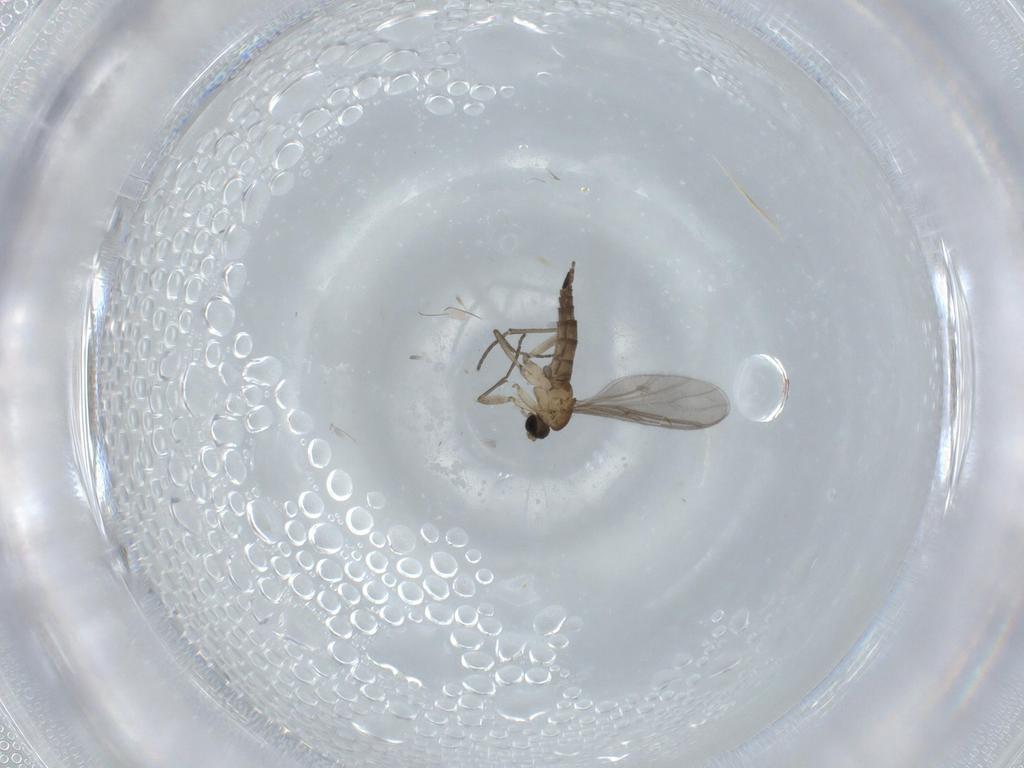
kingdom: Animalia
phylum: Arthropoda
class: Insecta
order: Diptera
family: Sciaridae
